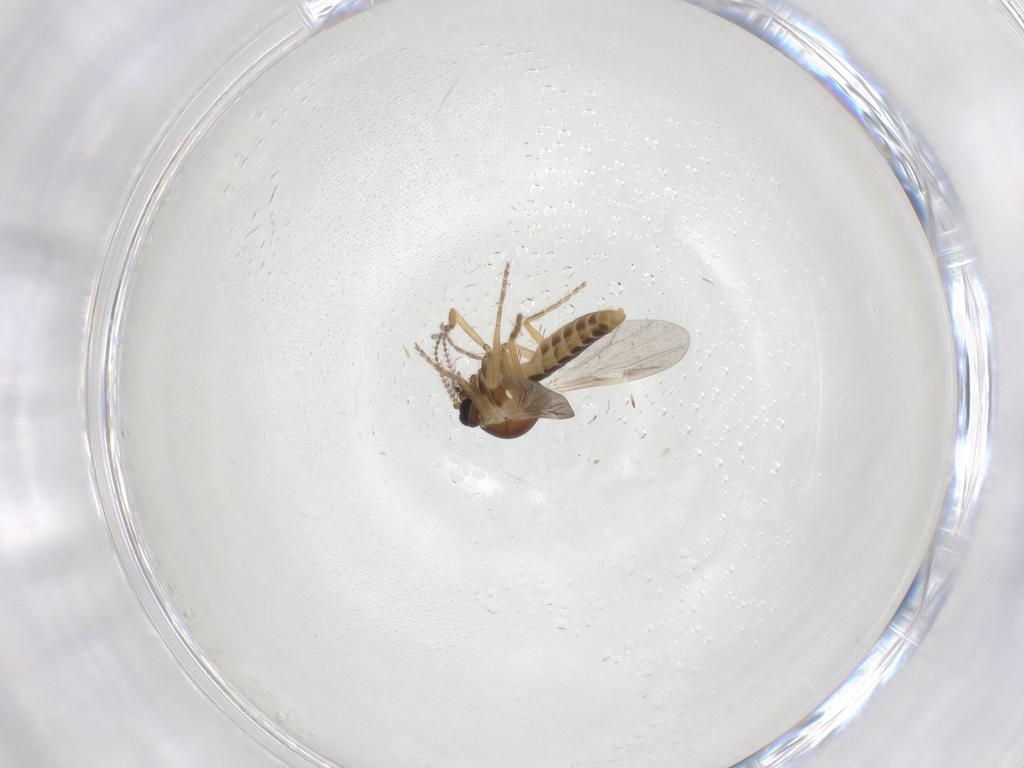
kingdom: Animalia
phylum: Arthropoda
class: Insecta
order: Diptera
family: Ceratopogonidae
